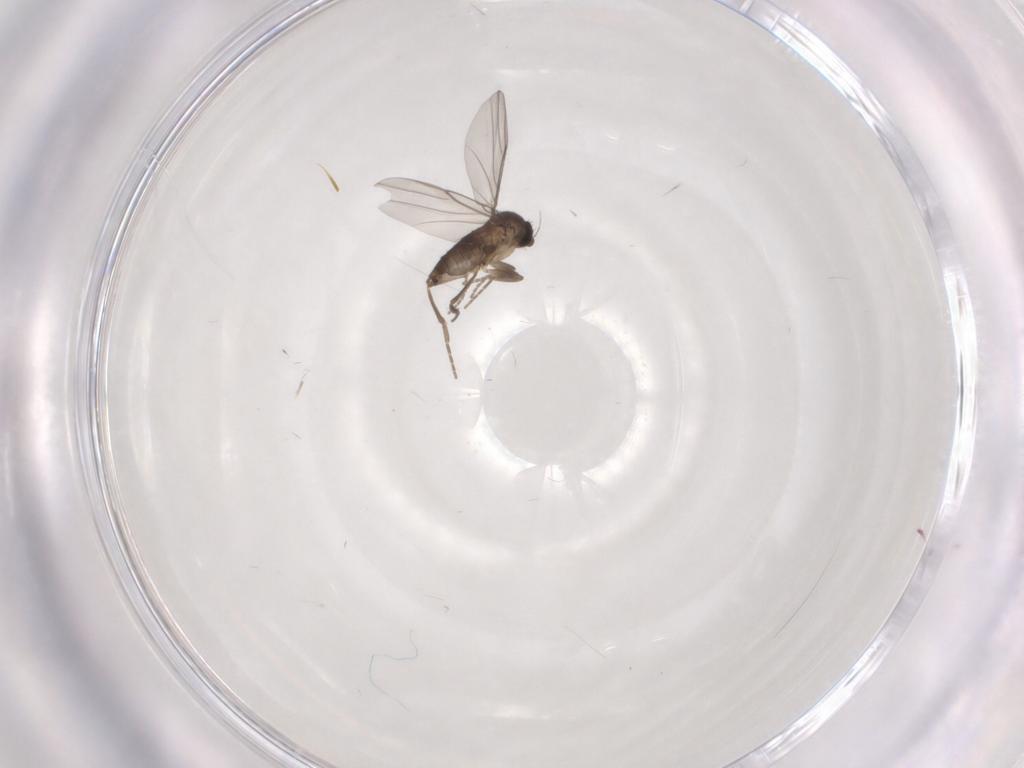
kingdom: Animalia
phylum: Arthropoda
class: Insecta
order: Diptera
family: Phoridae
